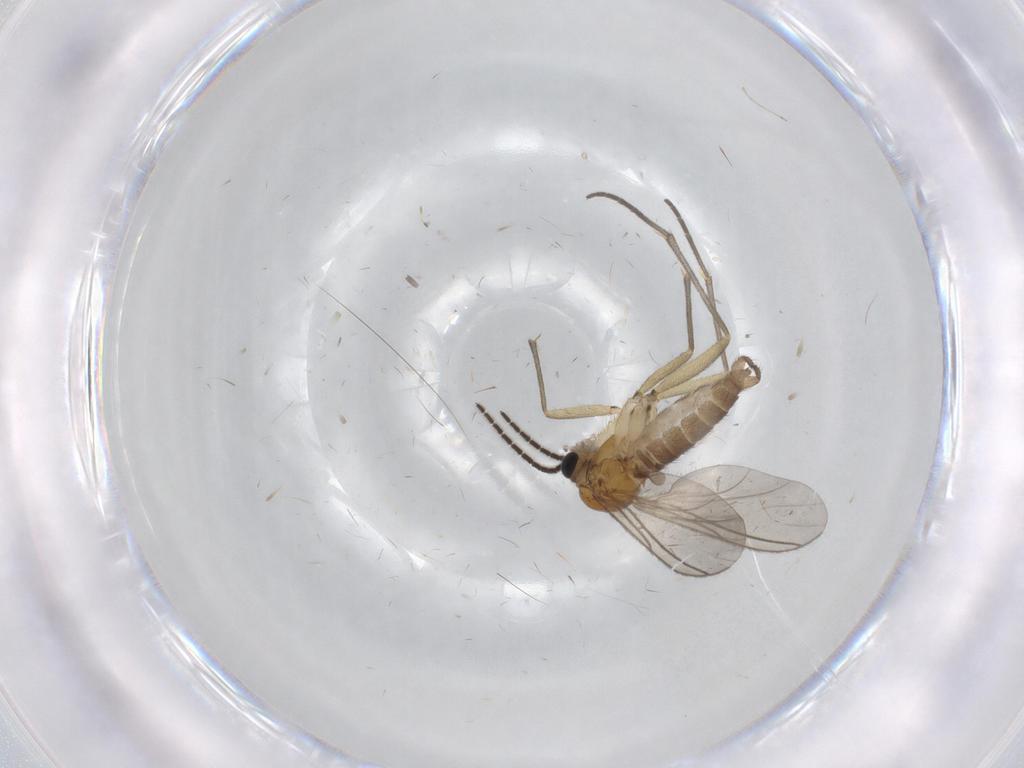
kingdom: Animalia
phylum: Arthropoda
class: Insecta
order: Diptera
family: Sciaridae
